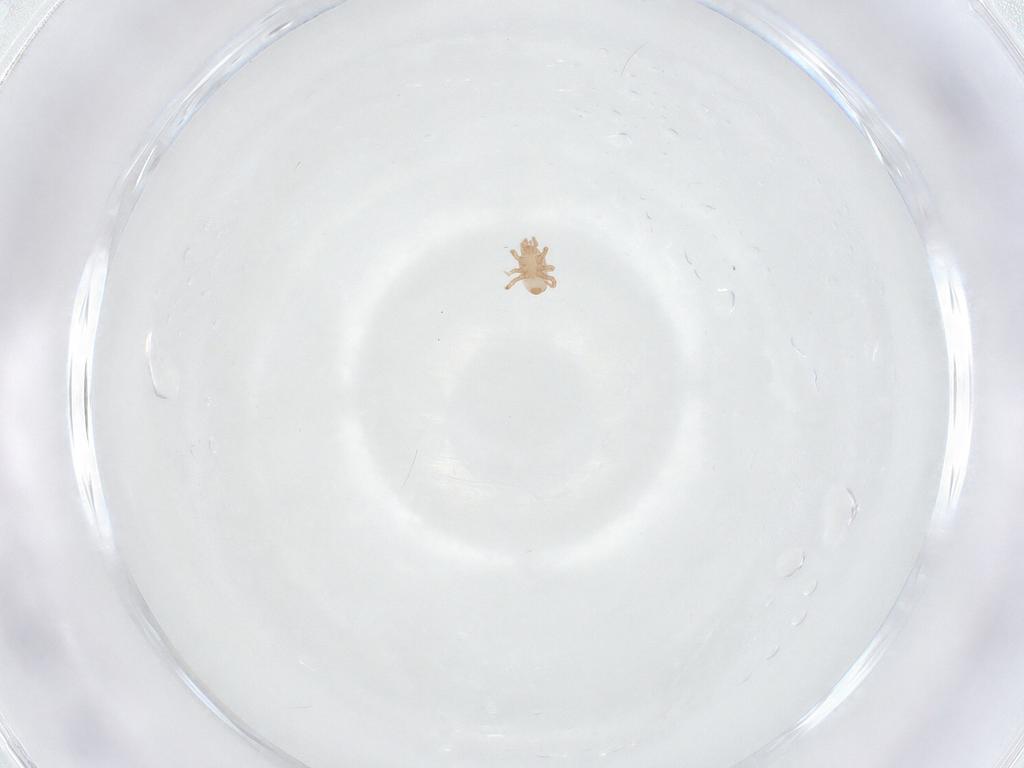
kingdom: Animalia
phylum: Arthropoda
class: Arachnida
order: Mesostigmata
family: Halolaelapidae
